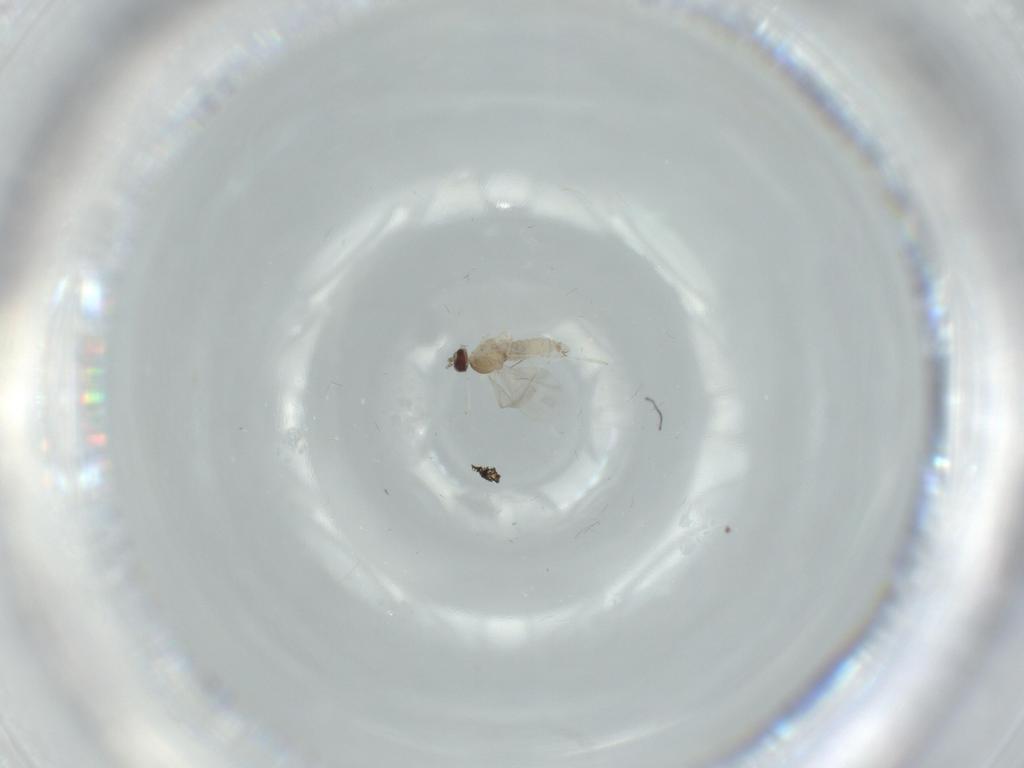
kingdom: Animalia
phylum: Arthropoda
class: Insecta
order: Diptera
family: Cecidomyiidae
